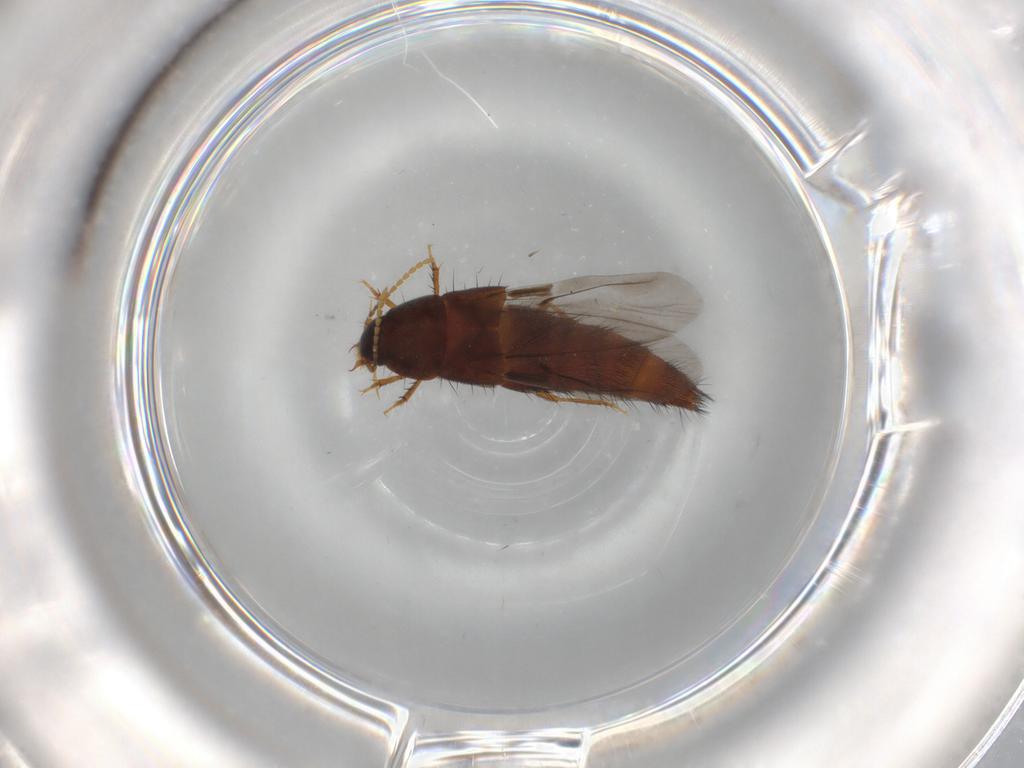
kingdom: Animalia
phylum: Arthropoda
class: Insecta
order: Coleoptera
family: Staphylinidae
